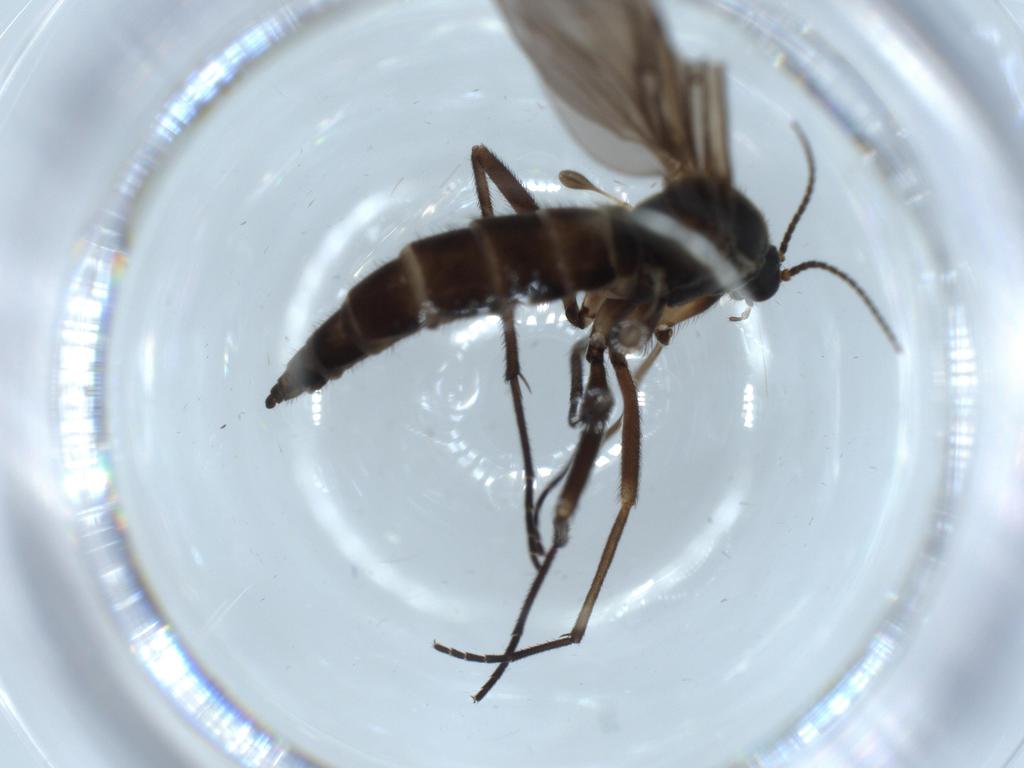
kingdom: Animalia
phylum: Arthropoda
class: Insecta
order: Diptera
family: Sciaridae
